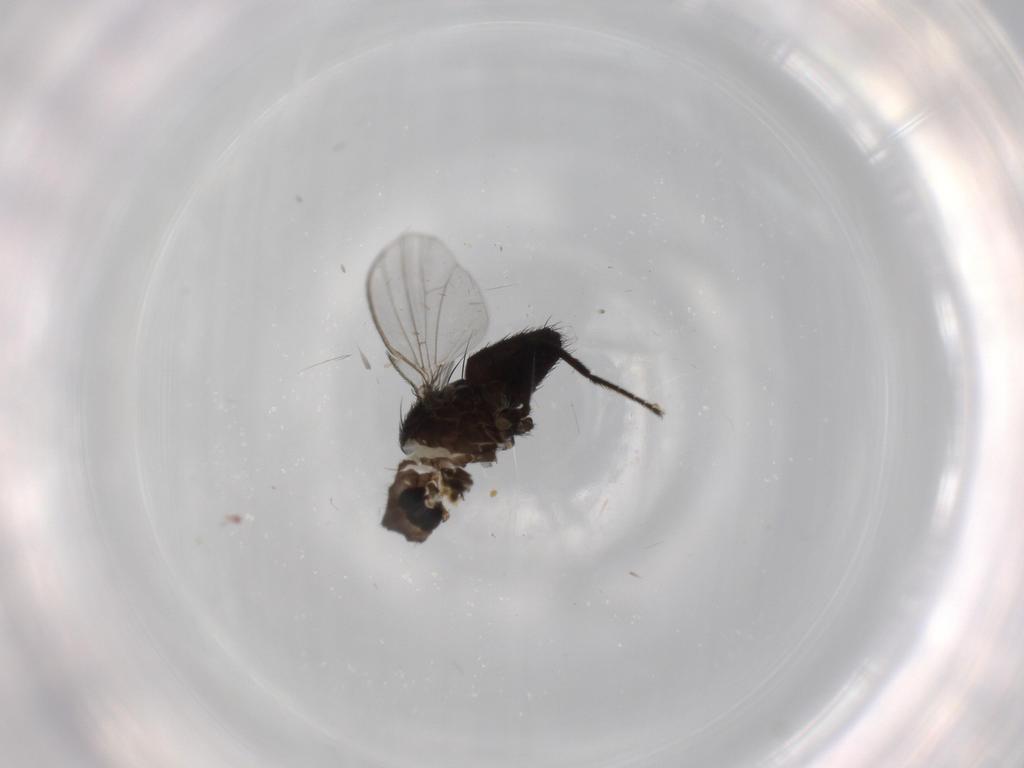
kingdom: Animalia
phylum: Arthropoda
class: Insecta
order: Diptera
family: Milichiidae
